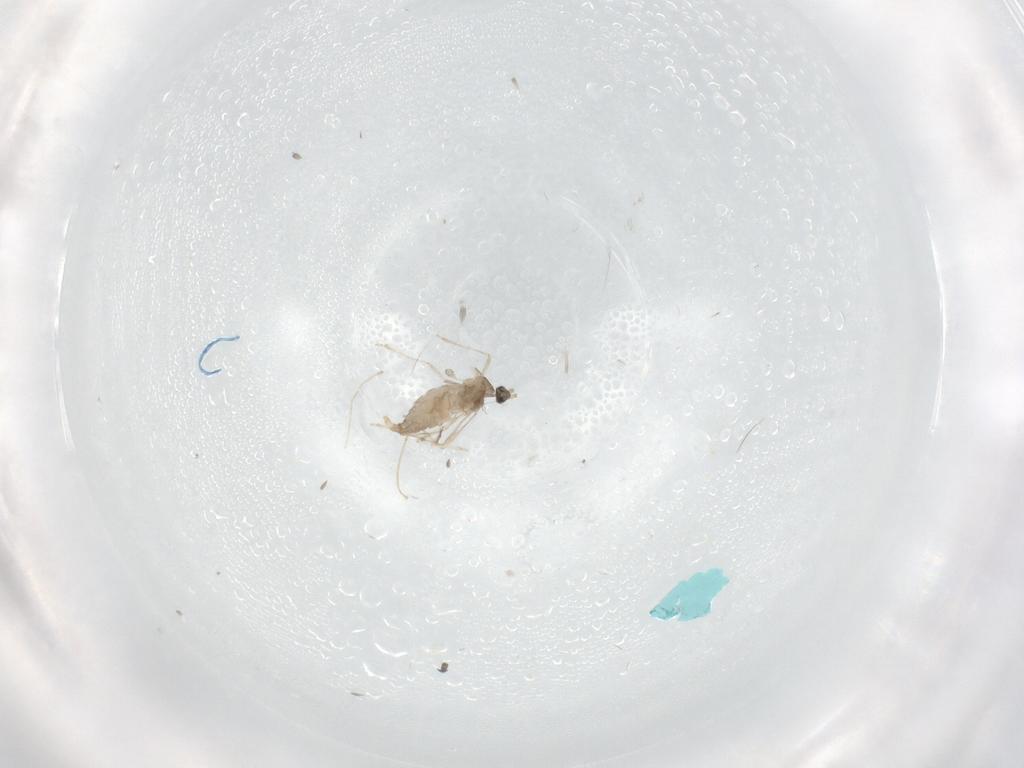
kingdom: Animalia
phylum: Arthropoda
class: Insecta
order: Diptera
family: Cecidomyiidae
